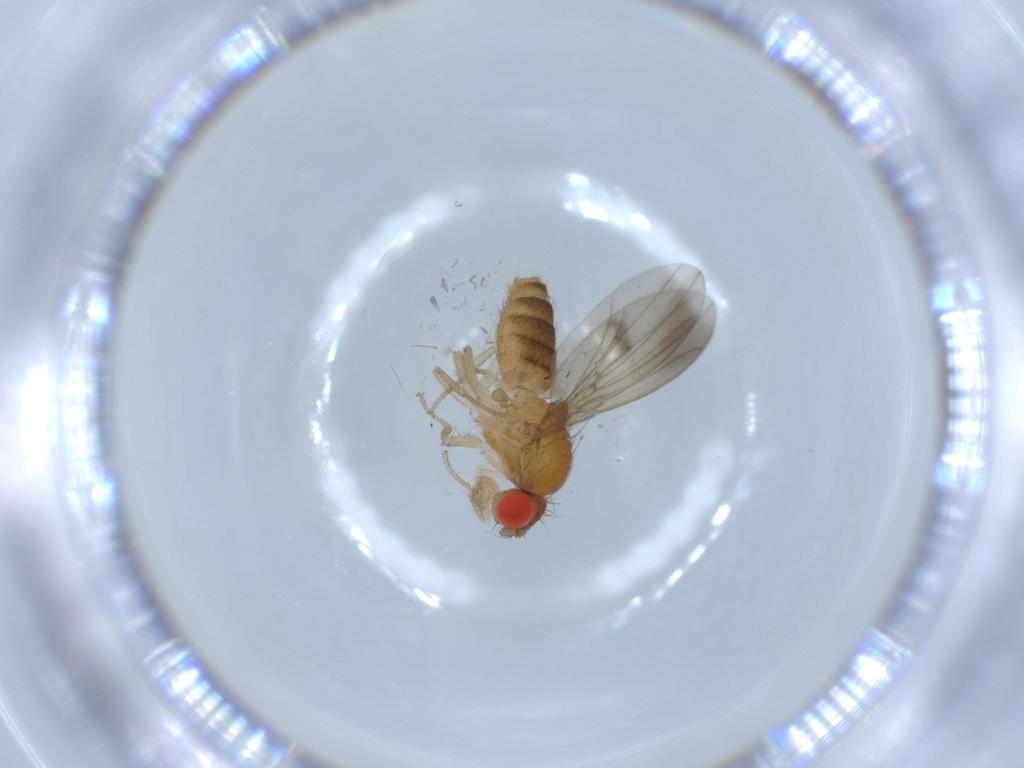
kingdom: Animalia
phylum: Arthropoda
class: Insecta
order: Diptera
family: Drosophilidae
